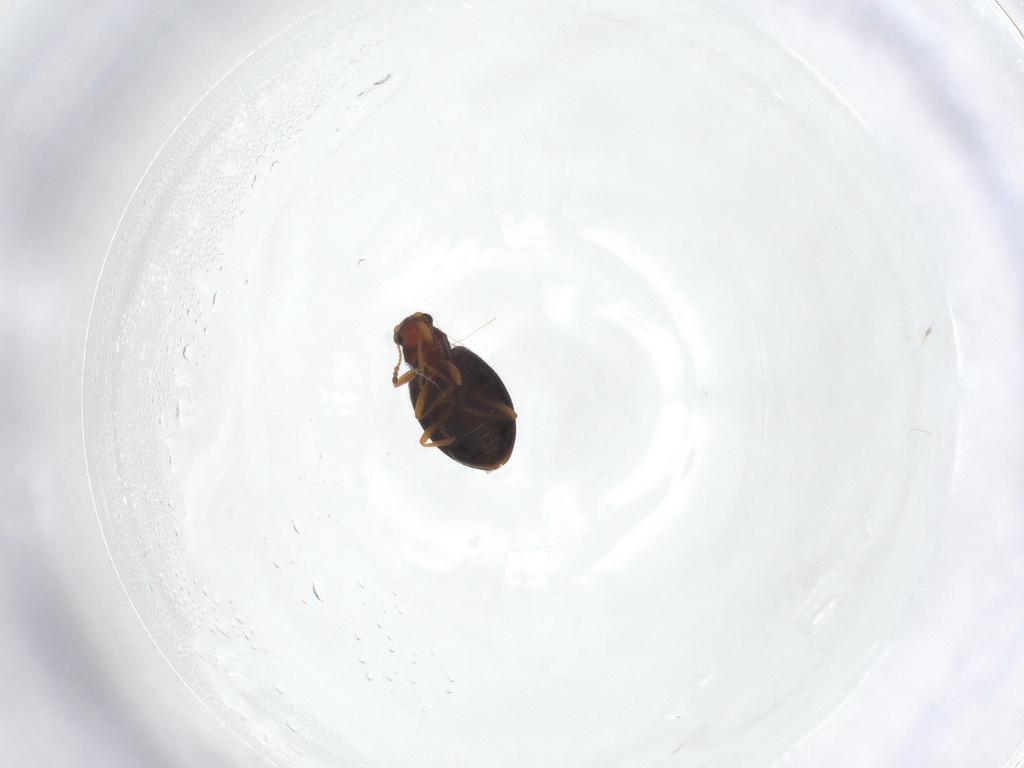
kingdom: Animalia
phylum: Arthropoda
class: Insecta
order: Coleoptera
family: Latridiidae
